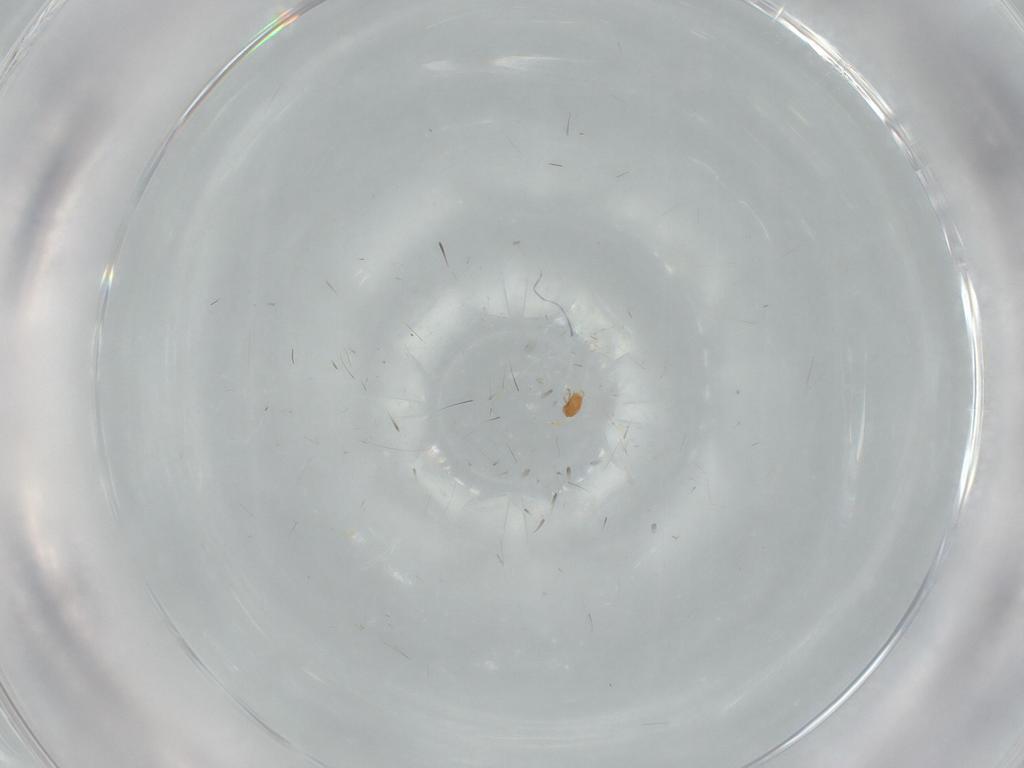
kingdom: Animalia
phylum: Arthropoda
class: Arachnida
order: Trombidiformes
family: Neopygmephoridae
